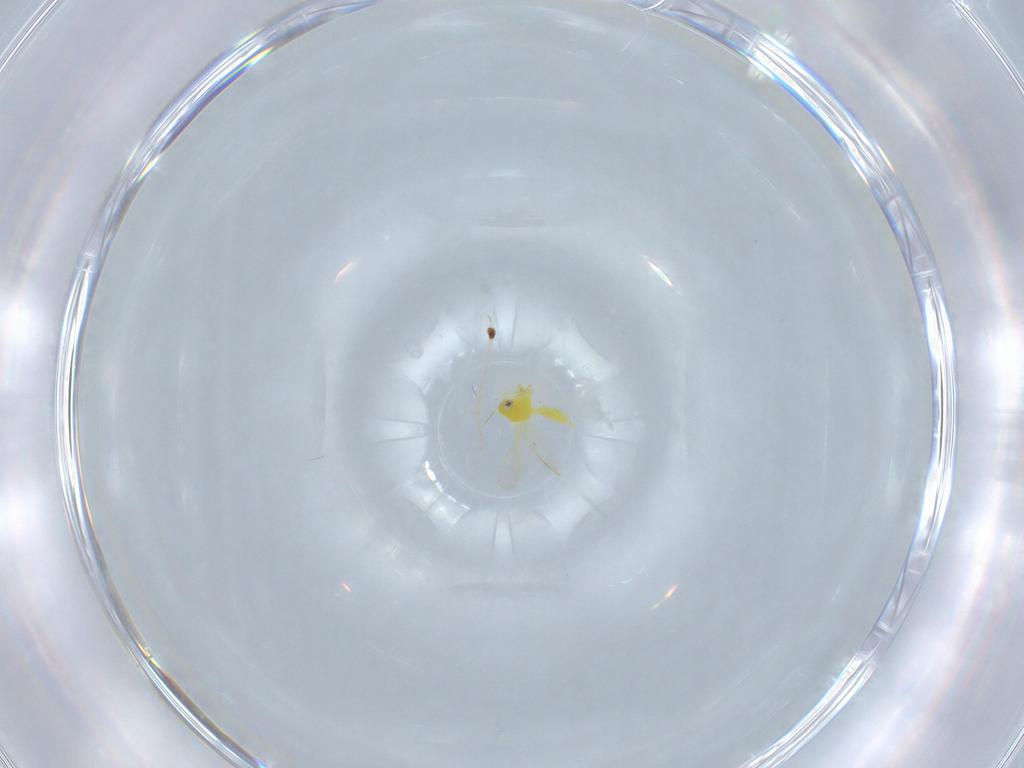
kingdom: Animalia
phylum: Arthropoda
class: Insecta
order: Hemiptera
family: Aleyrodidae
